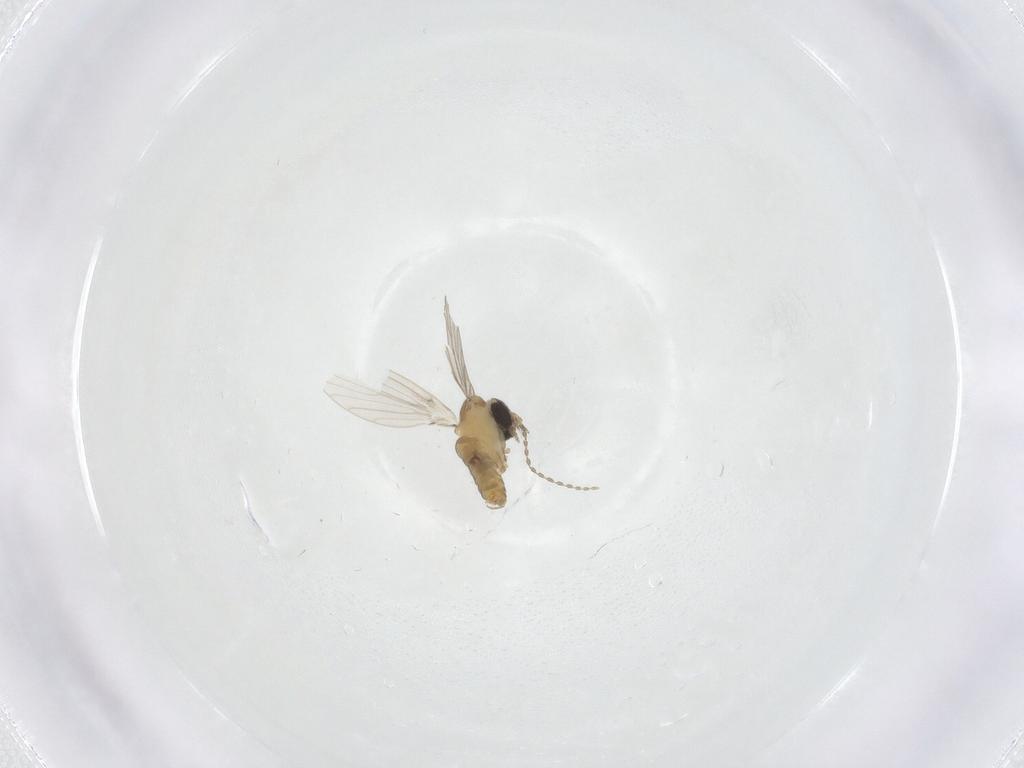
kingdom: Animalia
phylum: Arthropoda
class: Insecta
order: Diptera
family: Sciaridae
